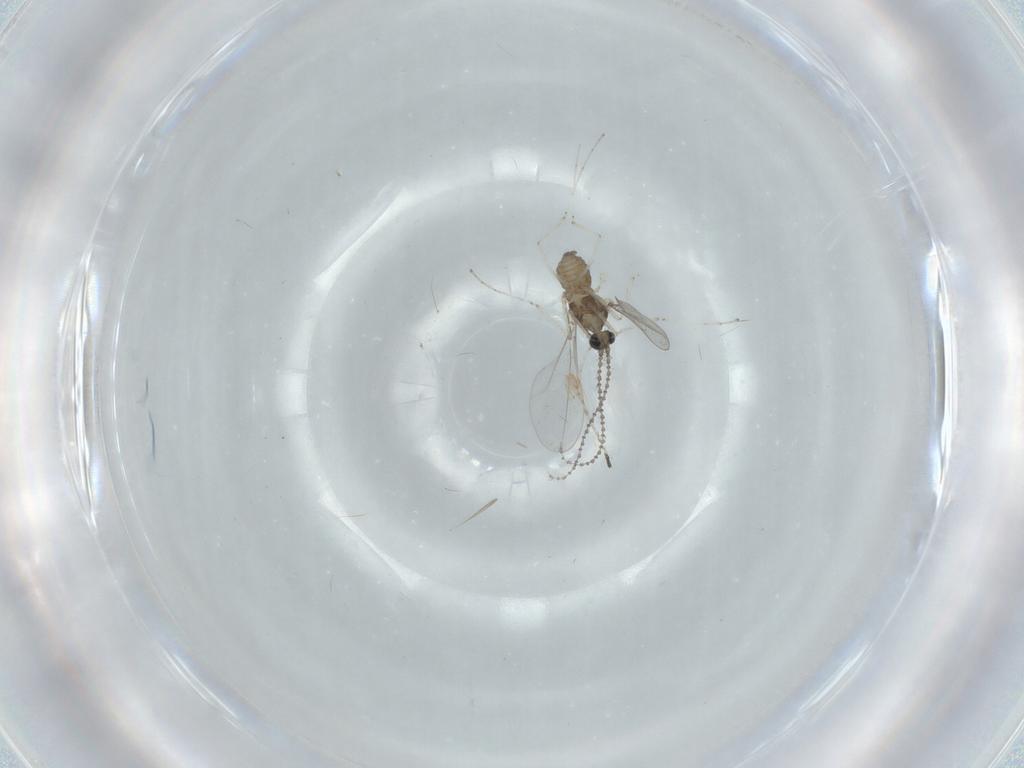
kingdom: Animalia
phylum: Arthropoda
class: Insecta
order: Diptera
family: Cecidomyiidae
